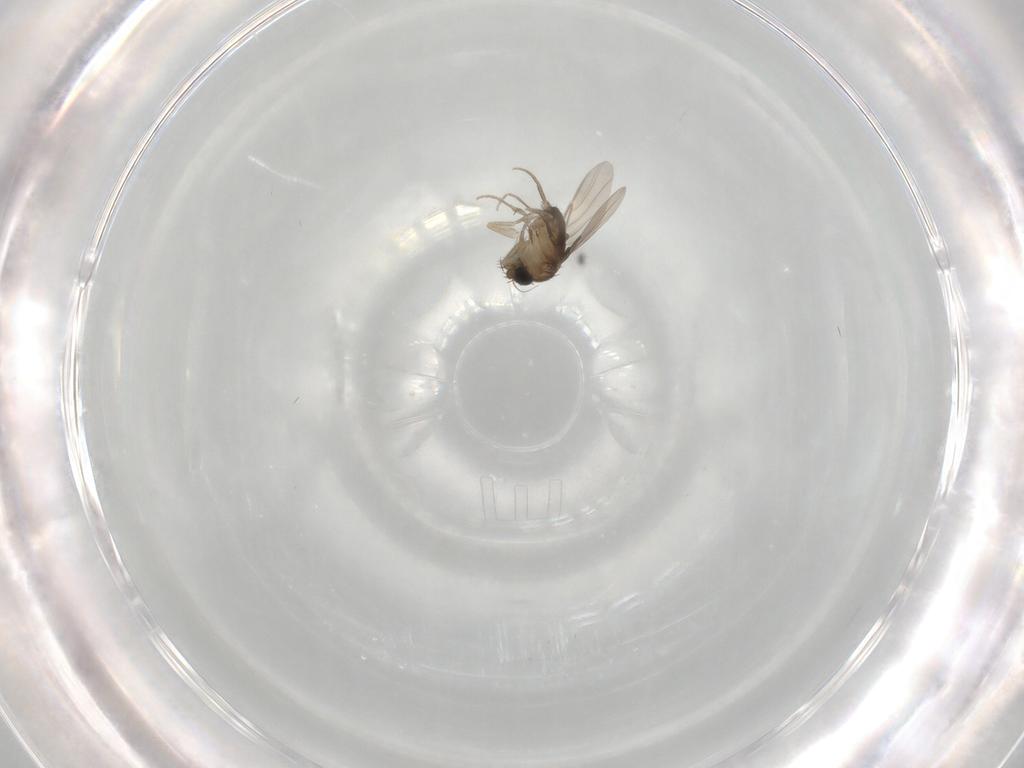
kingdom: Animalia
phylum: Arthropoda
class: Insecta
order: Diptera
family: Phoridae
